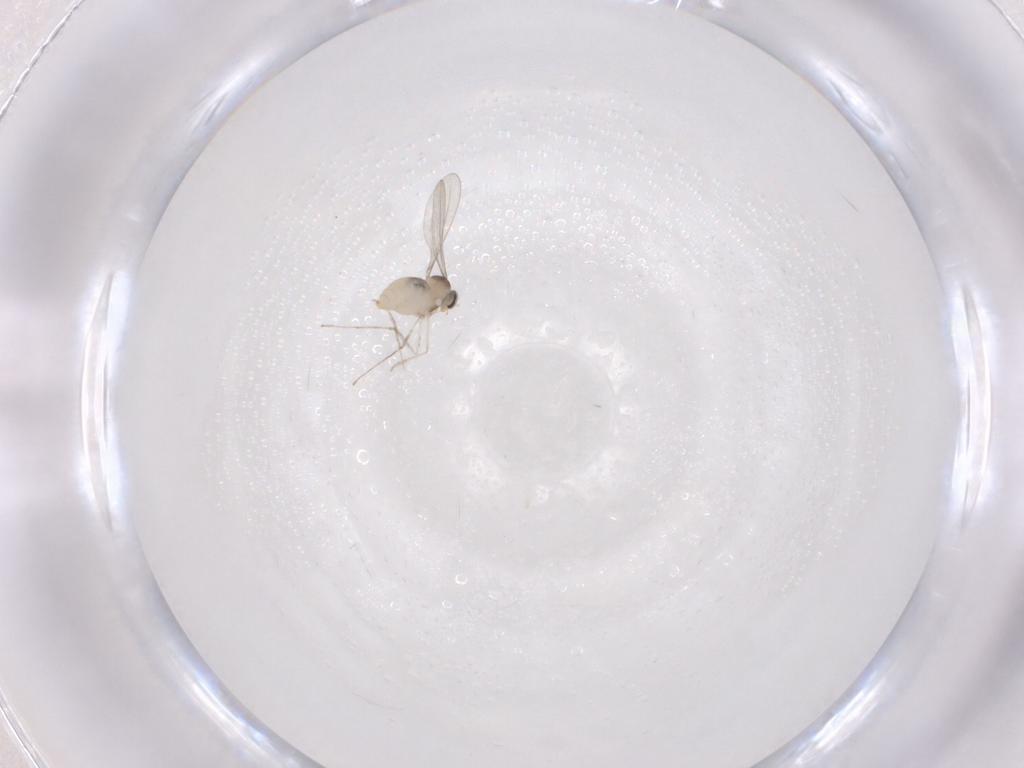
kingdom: Animalia
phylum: Arthropoda
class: Insecta
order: Diptera
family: Cecidomyiidae
